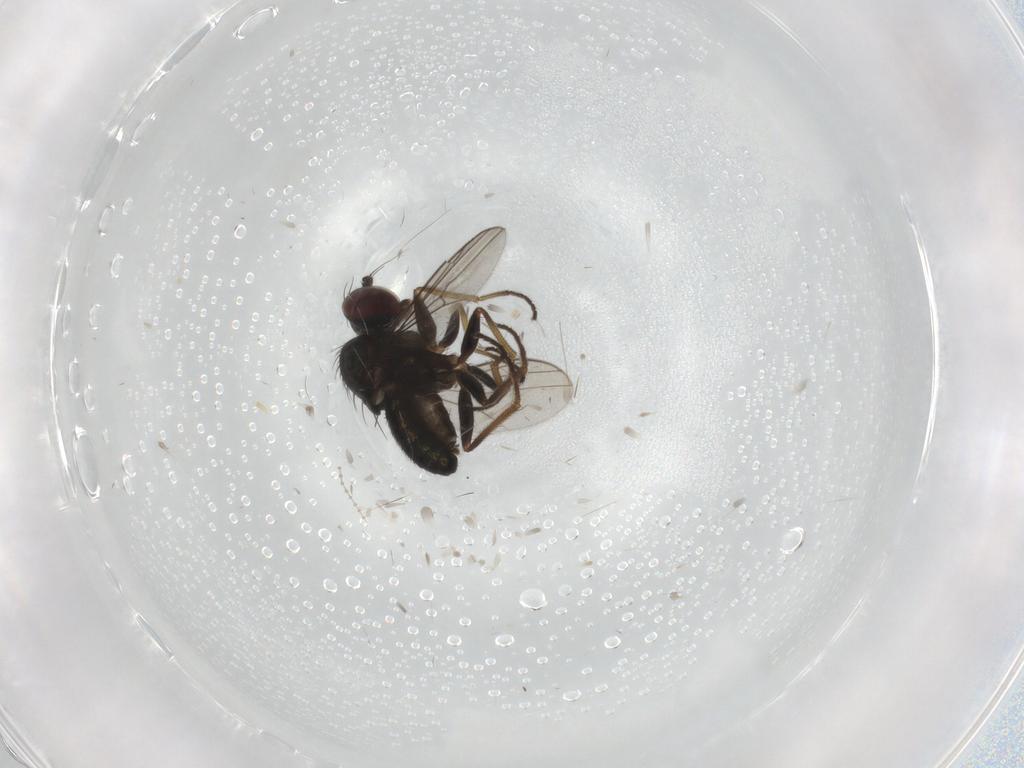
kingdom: Animalia
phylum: Arthropoda
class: Insecta
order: Diptera
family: Dolichopodidae
